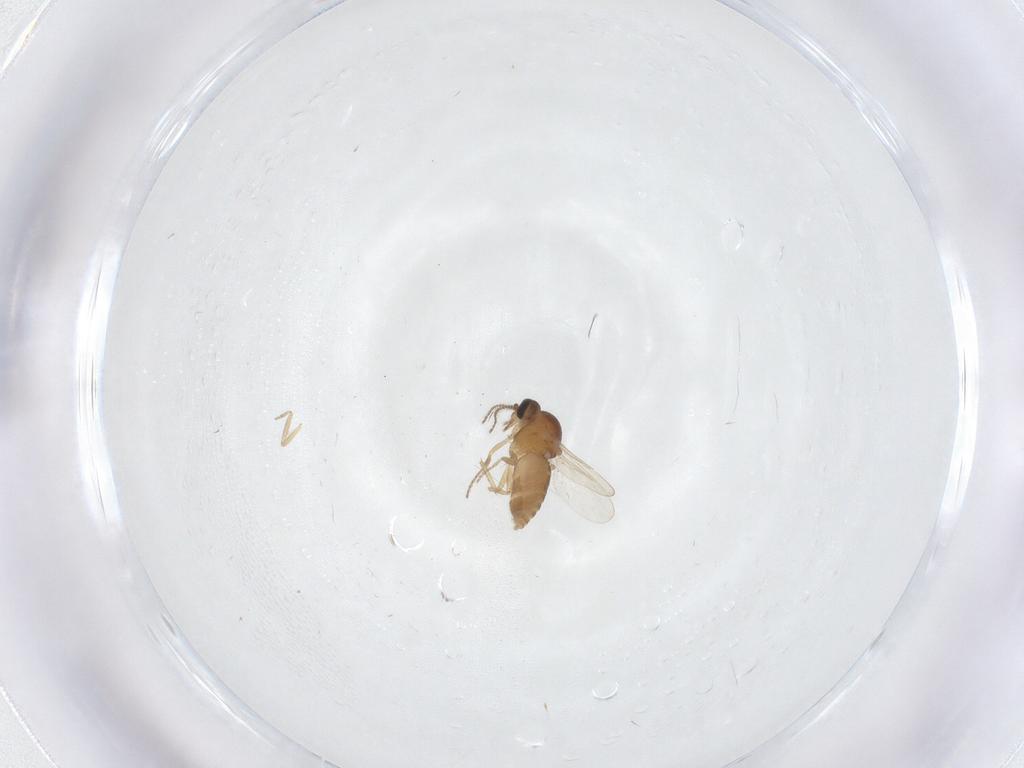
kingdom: Animalia
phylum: Arthropoda
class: Insecta
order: Diptera
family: Ceratopogonidae
